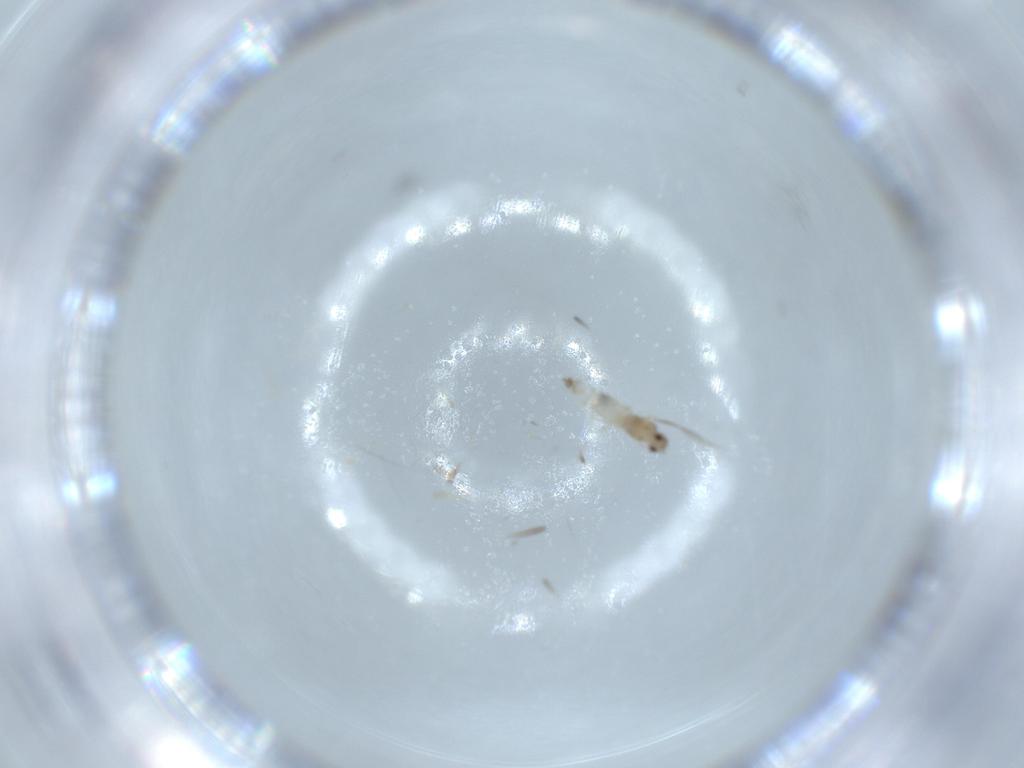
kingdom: Animalia
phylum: Arthropoda
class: Insecta
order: Diptera
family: Cecidomyiidae
